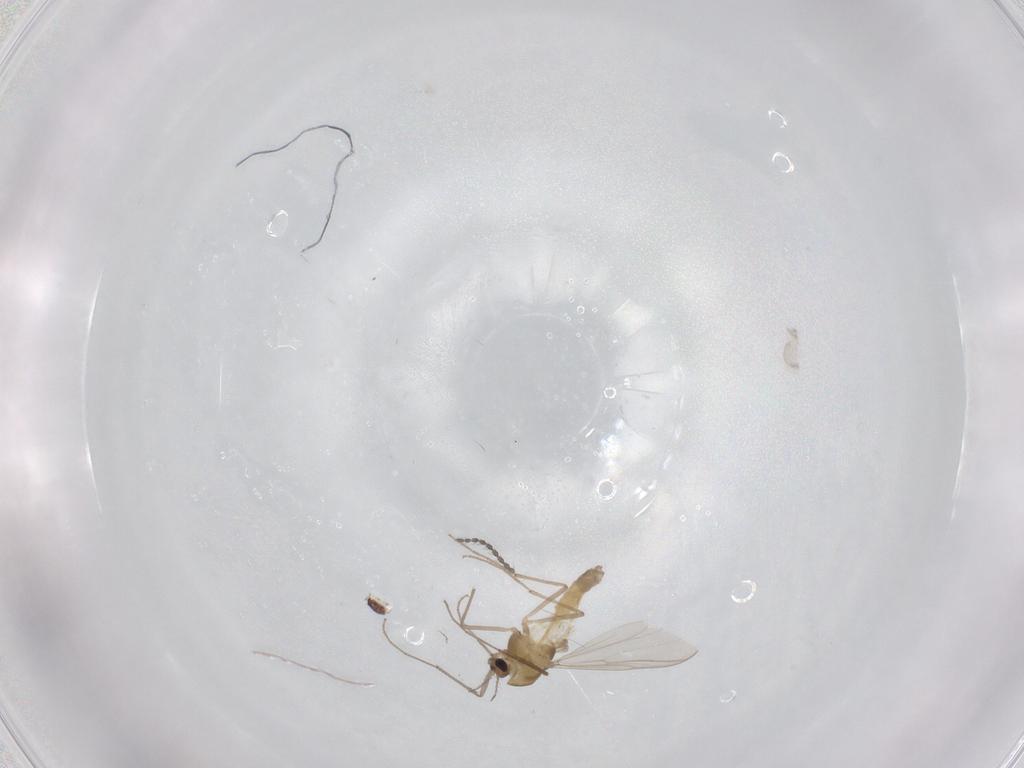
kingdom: Animalia
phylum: Arthropoda
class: Insecta
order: Diptera
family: Chironomidae
